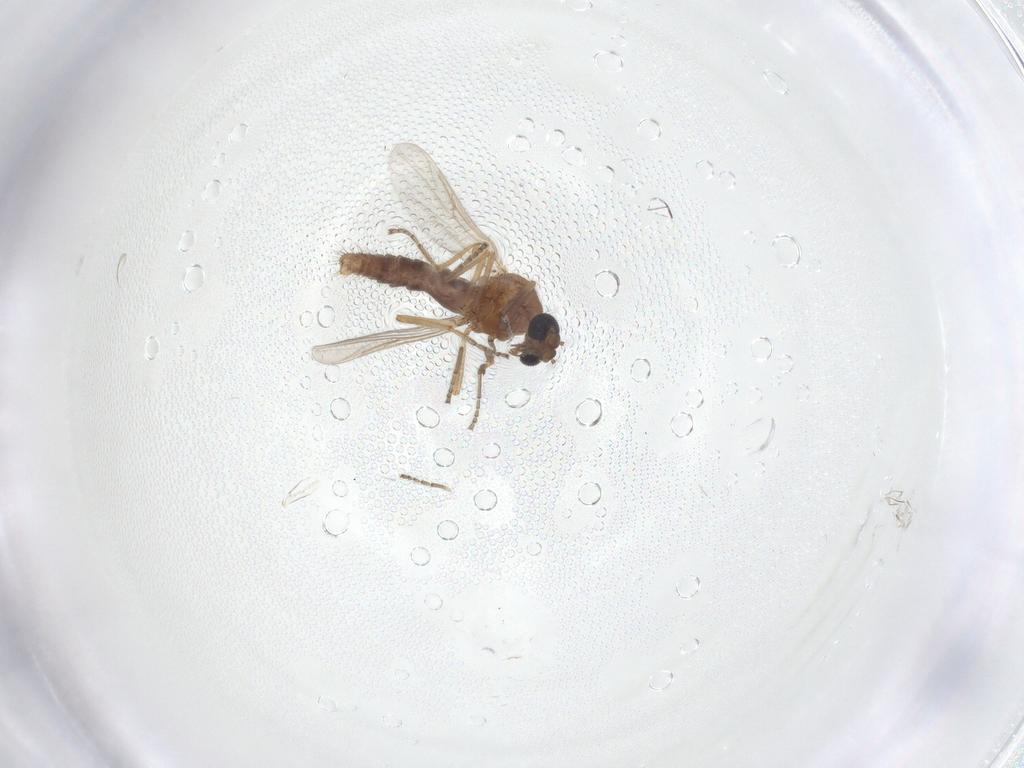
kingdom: Animalia
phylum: Arthropoda
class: Insecta
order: Diptera
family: Ceratopogonidae
